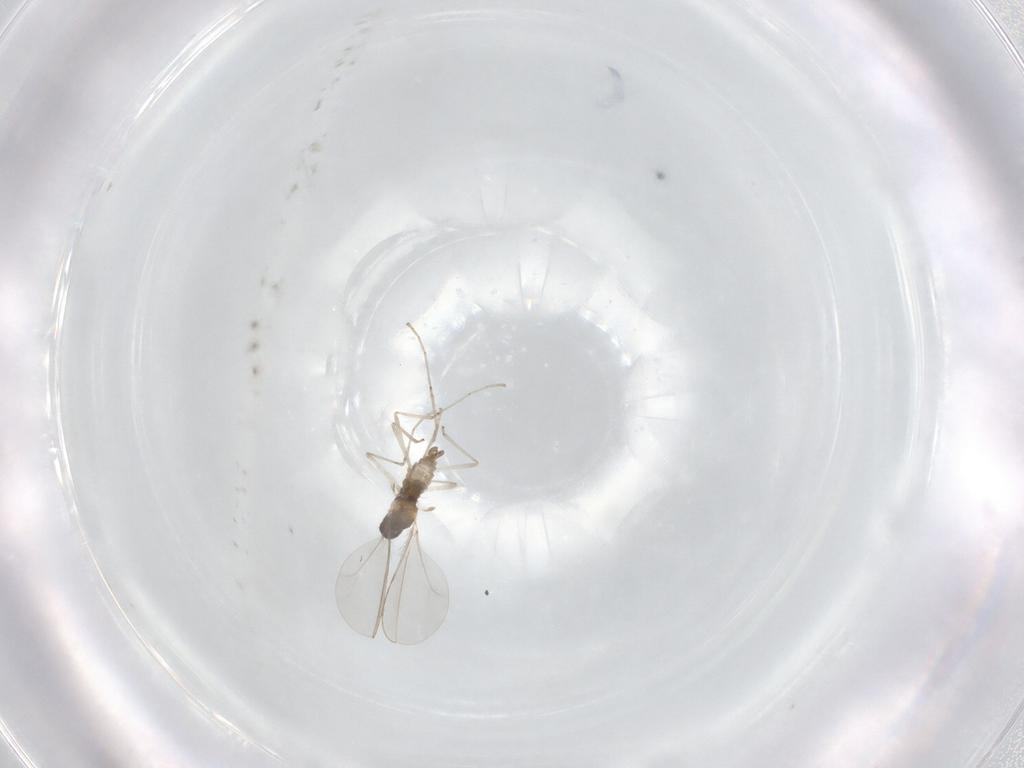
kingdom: Animalia
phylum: Arthropoda
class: Insecta
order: Diptera
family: Cecidomyiidae
